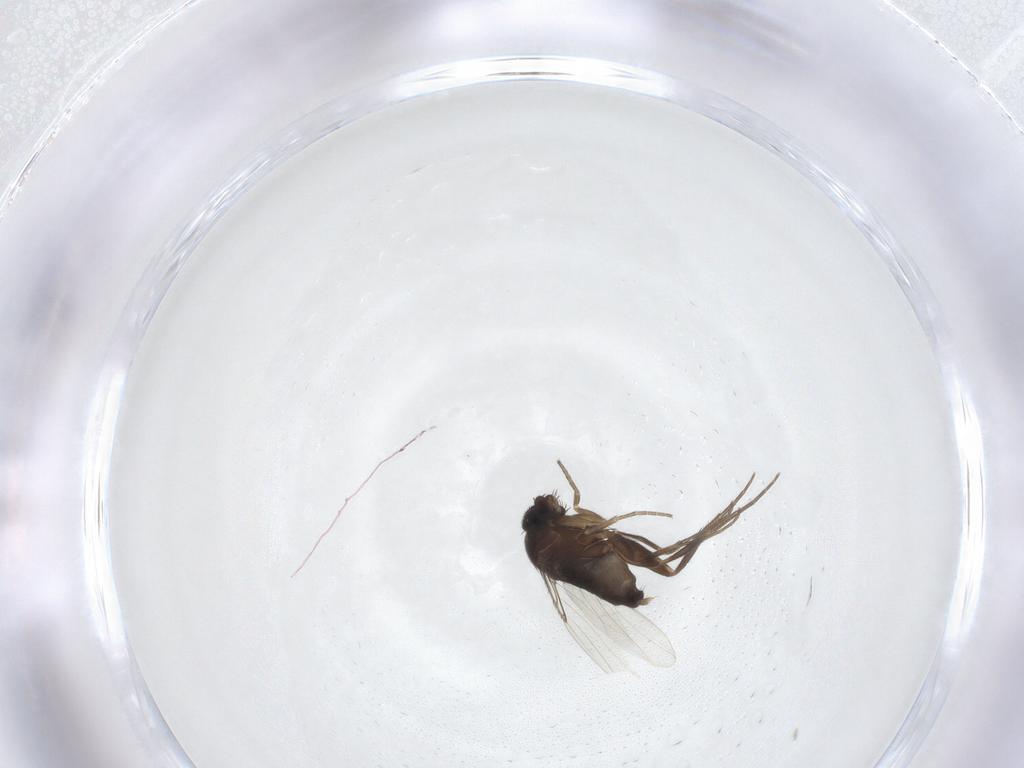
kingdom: Animalia
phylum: Arthropoda
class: Insecta
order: Diptera
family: Phoridae
